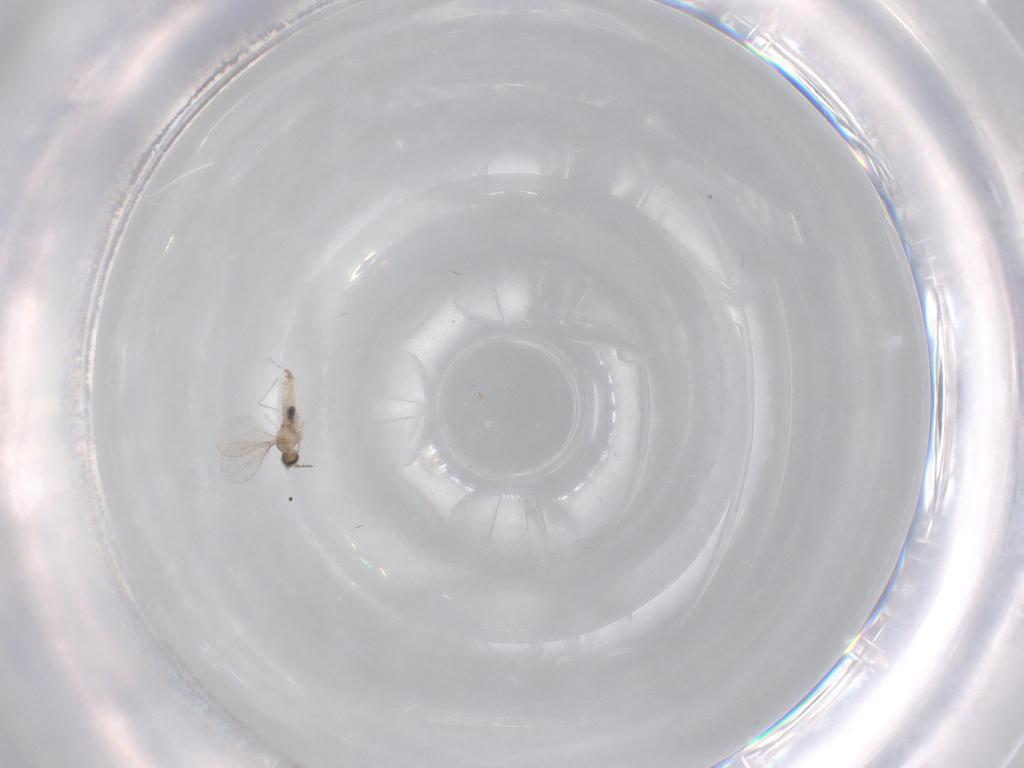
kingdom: Animalia
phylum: Arthropoda
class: Insecta
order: Diptera
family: Cecidomyiidae
